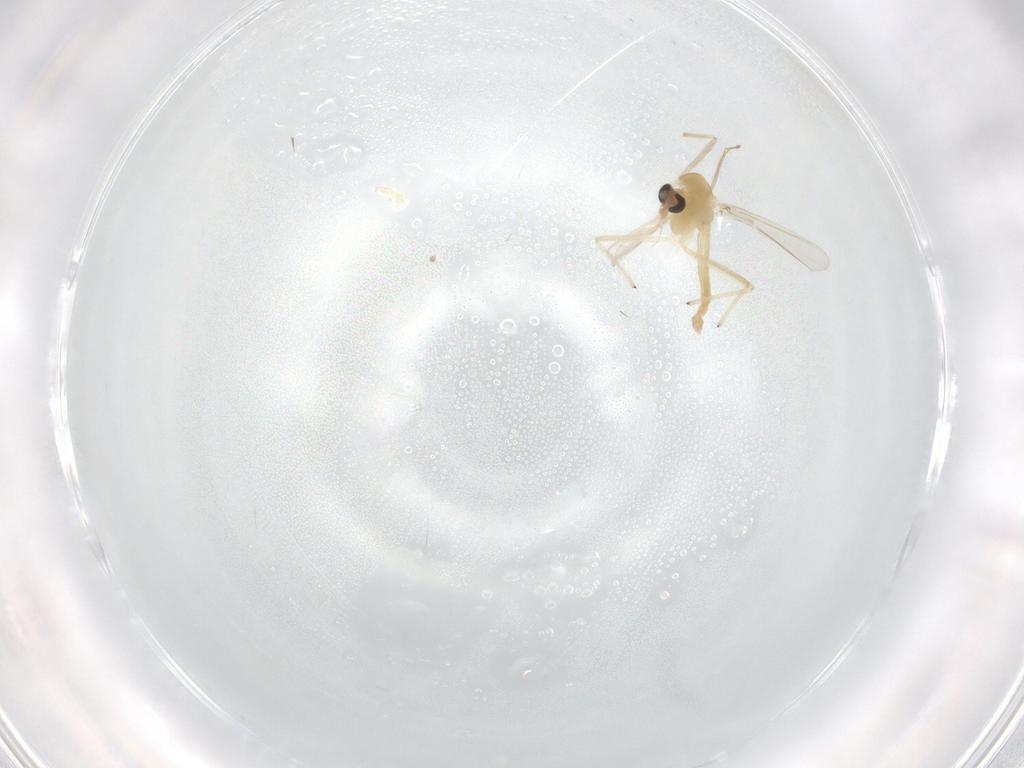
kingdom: Animalia
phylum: Arthropoda
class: Insecta
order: Diptera
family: Chironomidae
